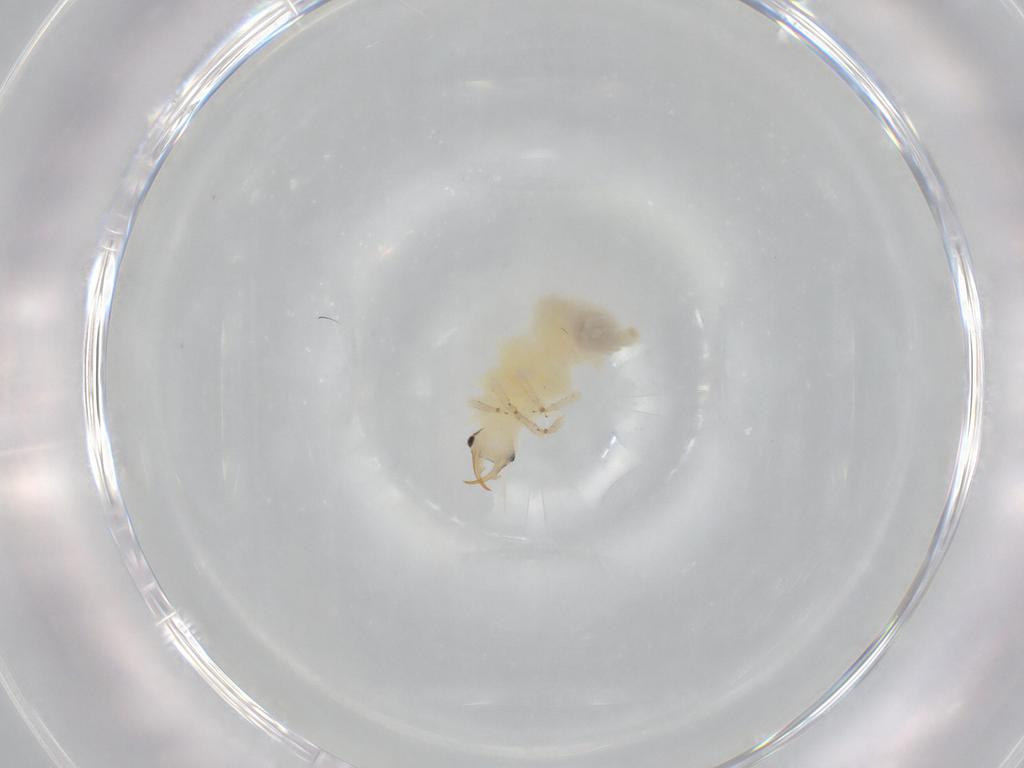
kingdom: Animalia
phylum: Arthropoda
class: Insecta
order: Neuroptera
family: Chrysopidae
